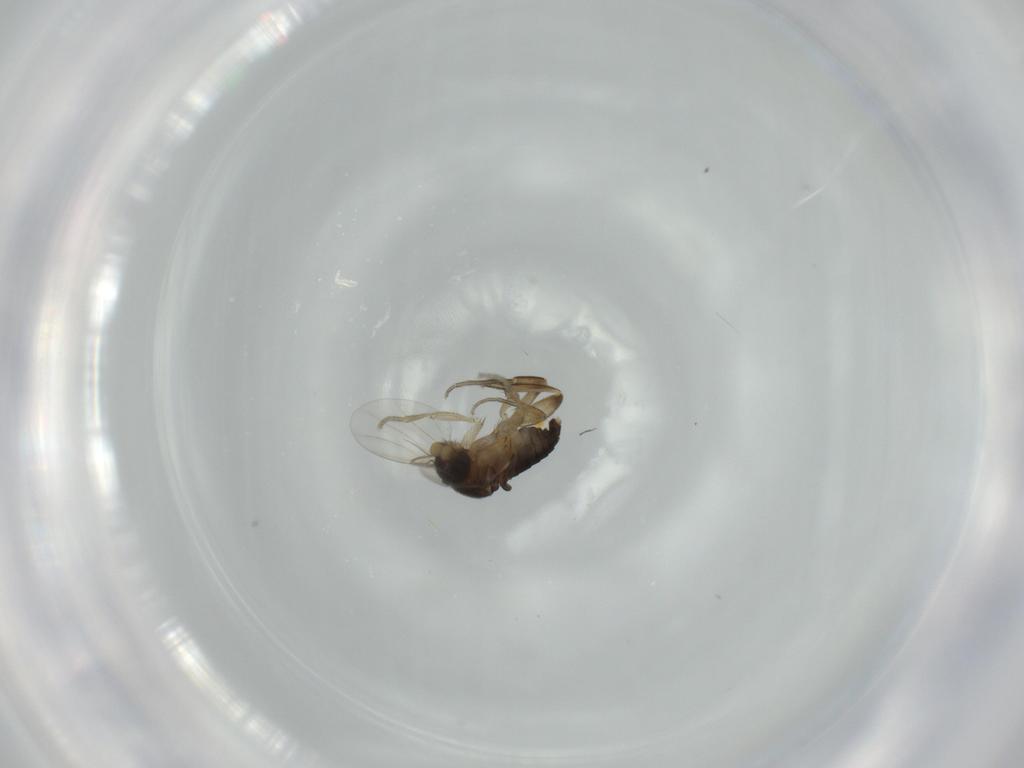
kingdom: Animalia
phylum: Arthropoda
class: Insecta
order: Diptera
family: Phoridae
